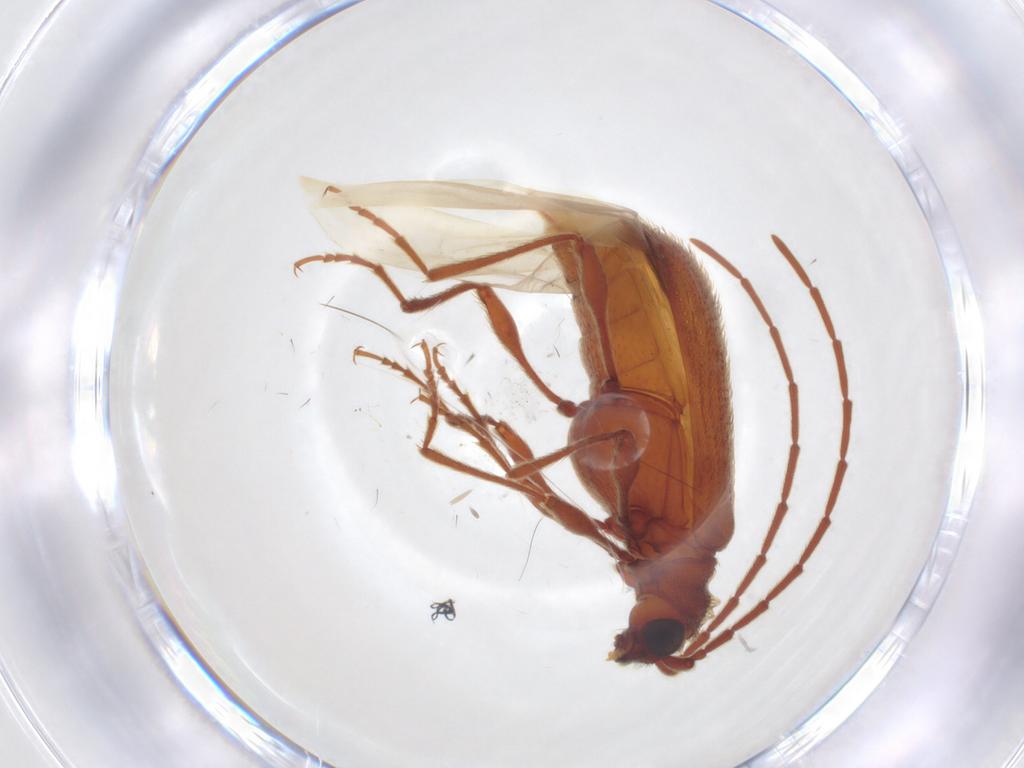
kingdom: Animalia
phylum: Arthropoda
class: Insecta
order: Coleoptera
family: Ptinidae
